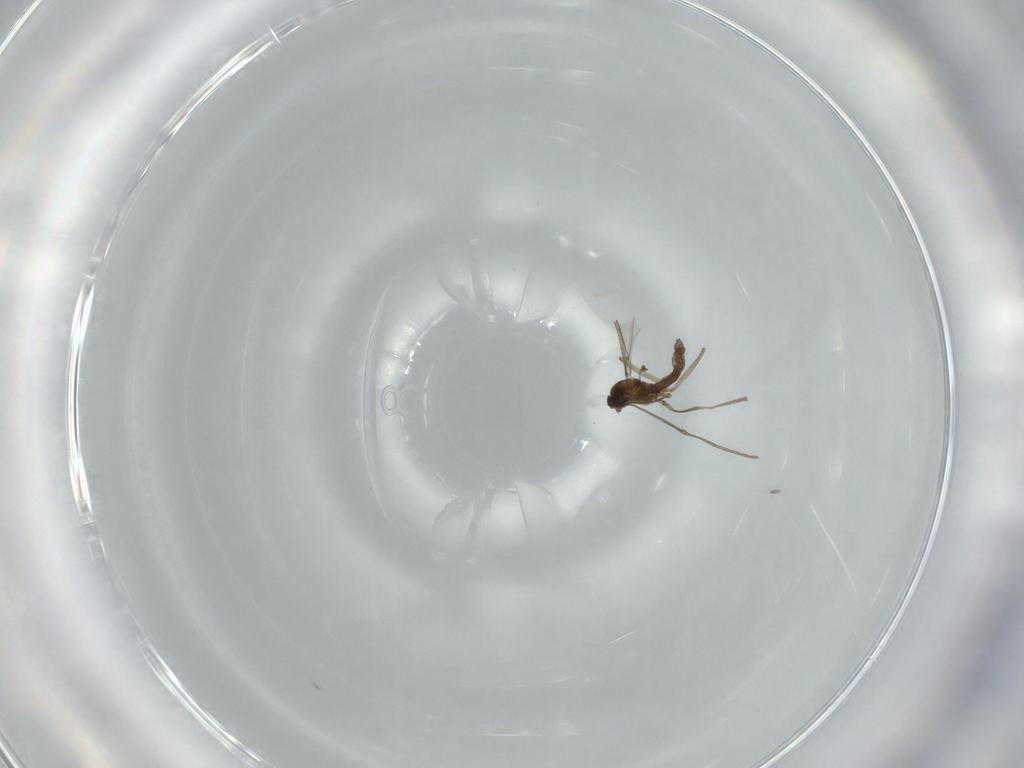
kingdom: Animalia
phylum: Arthropoda
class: Insecta
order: Diptera
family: Cecidomyiidae
